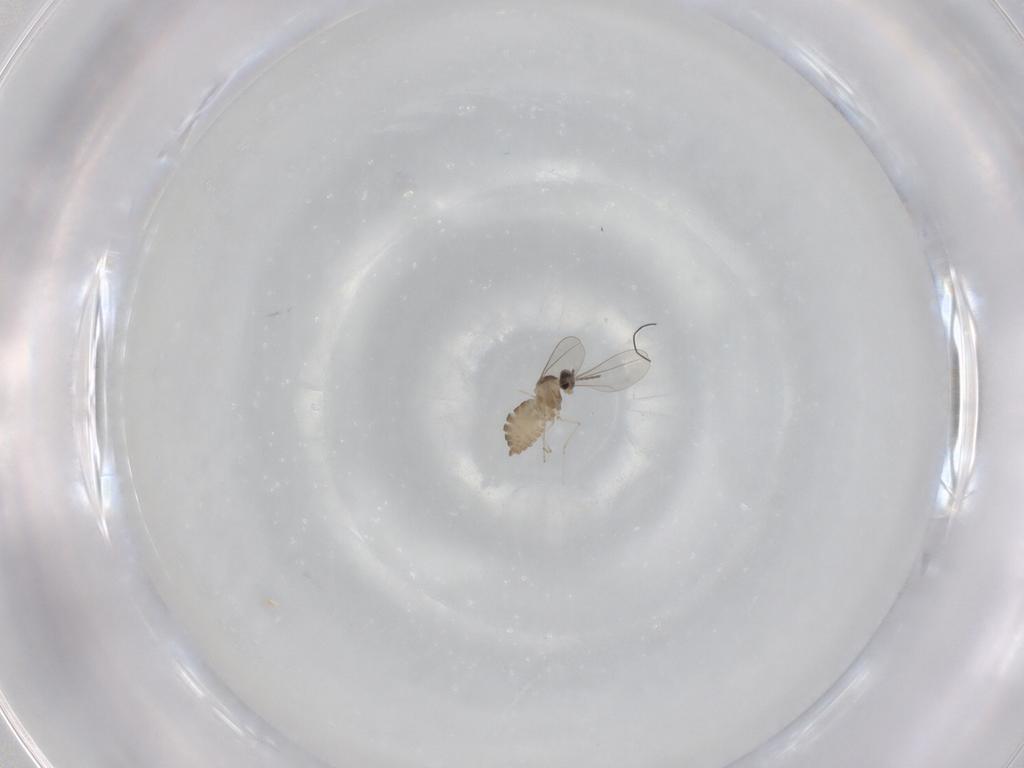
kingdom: Animalia
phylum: Arthropoda
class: Insecta
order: Diptera
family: Cecidomyiidae
